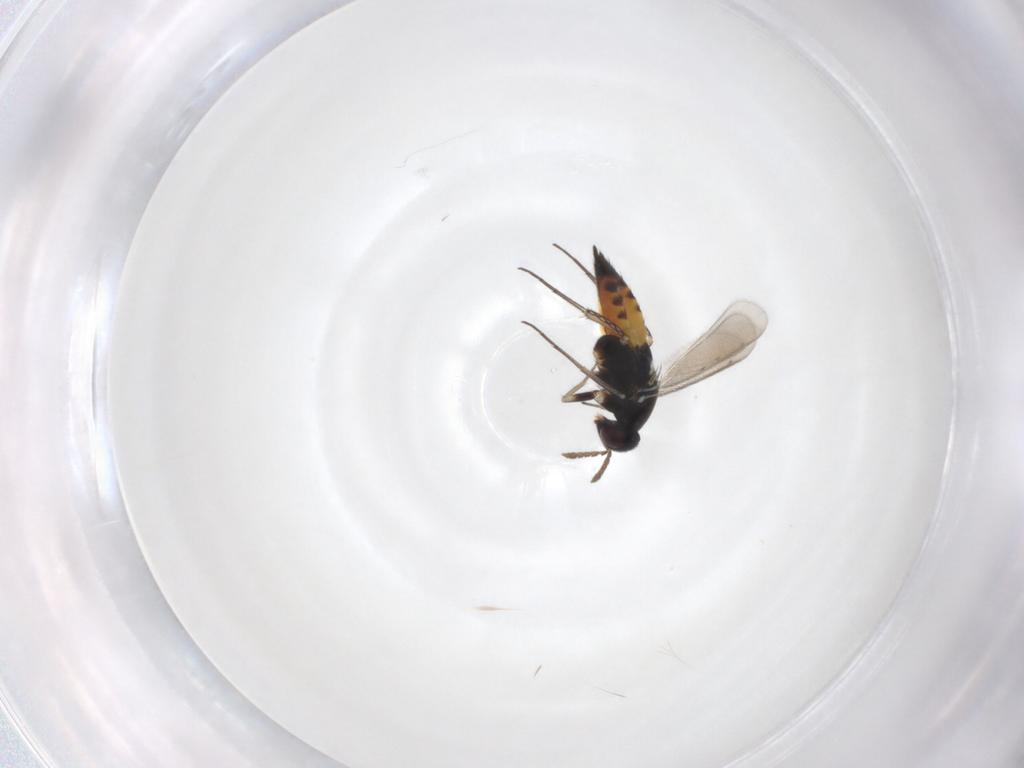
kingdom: Animalia
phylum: Arthropoda
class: Insecta
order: Hymenoptera
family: Eulophidae
